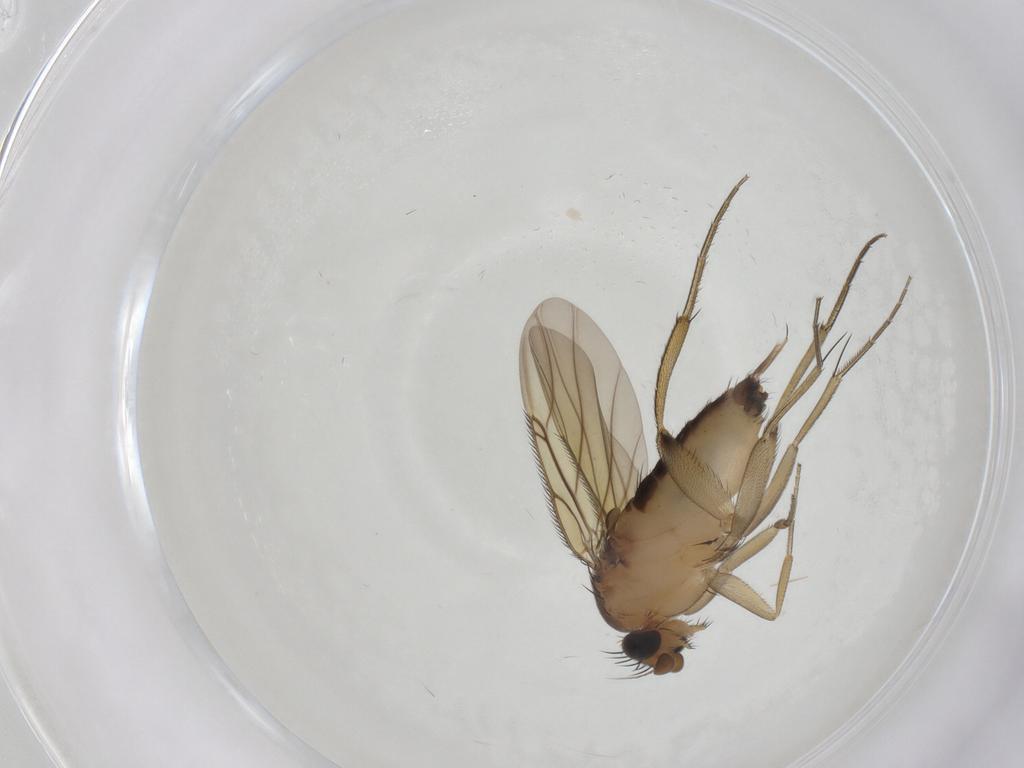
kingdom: Animalia
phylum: Arthropoda
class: Insecta
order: Diptera
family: Phoridae
